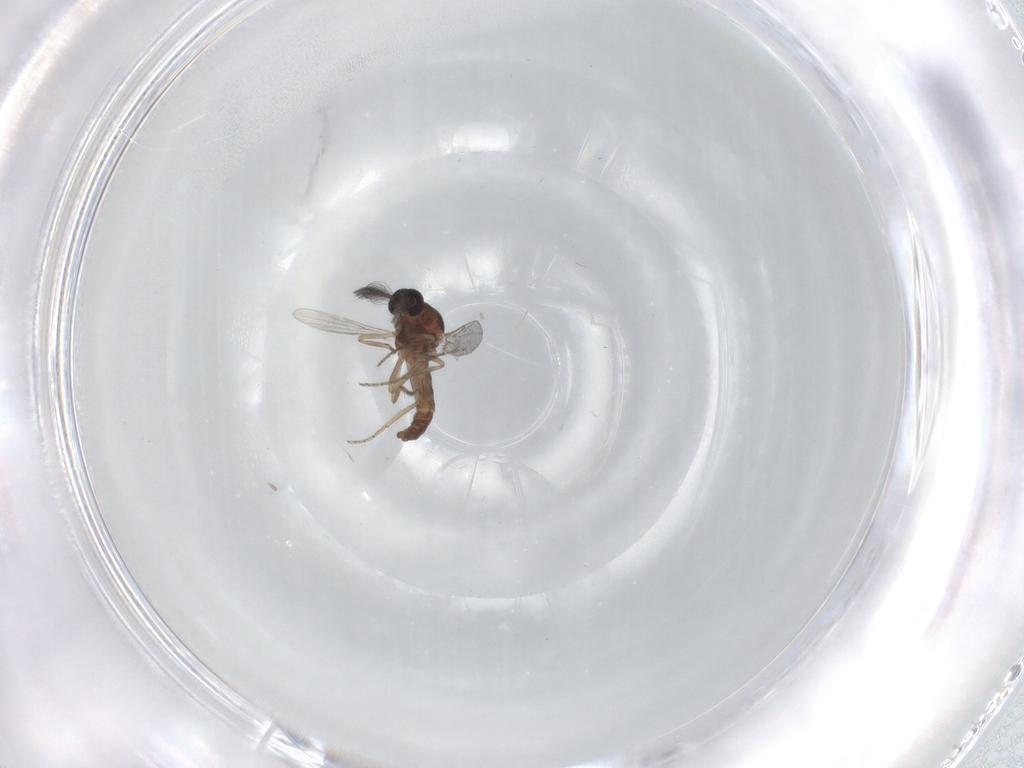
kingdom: Animalia
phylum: Arthropoda
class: Insecta
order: Diptera
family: Ceratopogonidae
